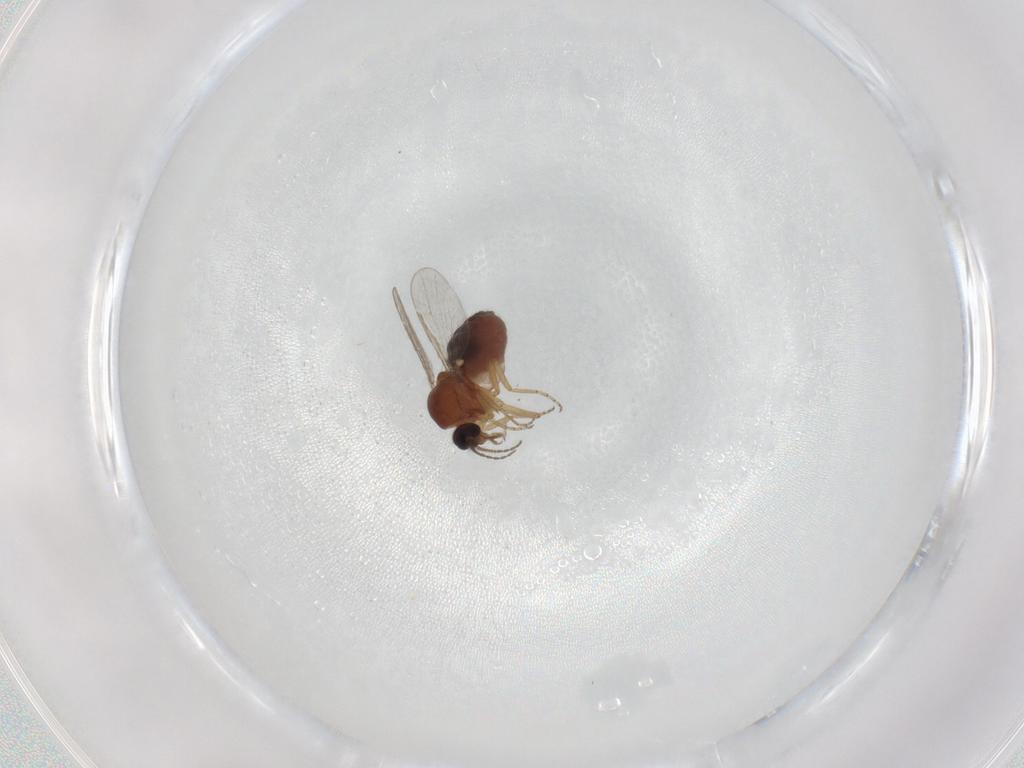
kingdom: Animalia
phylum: Arthropoda
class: Insecta
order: Diptera
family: Ceratopogonidae
